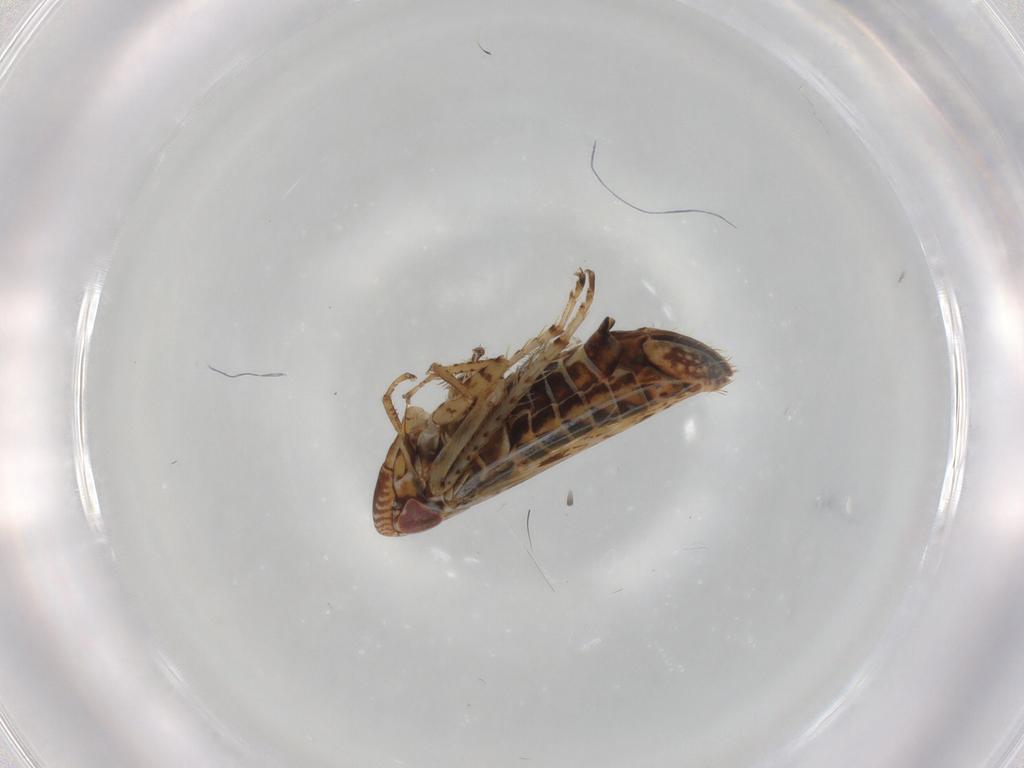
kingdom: Animalia
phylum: Arthropoda
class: Insecta
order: Hemiptera
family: Cicadellidae
